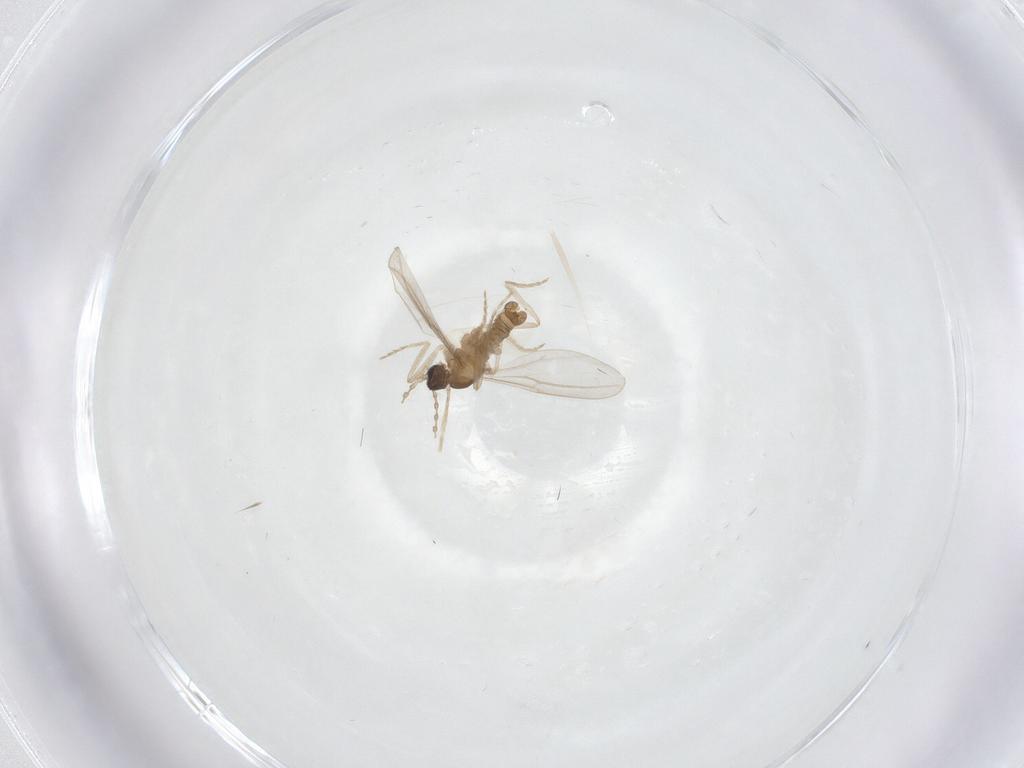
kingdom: Animalia
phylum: Arthropoda
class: Insecta
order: Diptera
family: Cecidomyiidae
